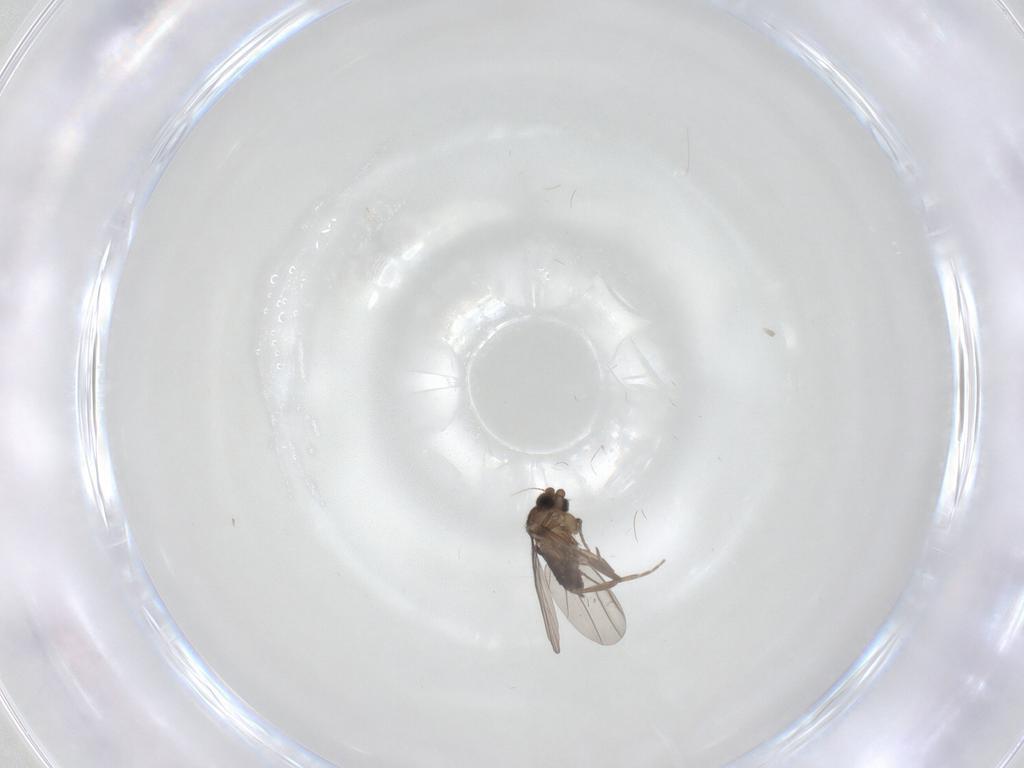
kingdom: Animalia
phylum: Arthropoda
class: Insecta
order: Diptera
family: Phoridae
